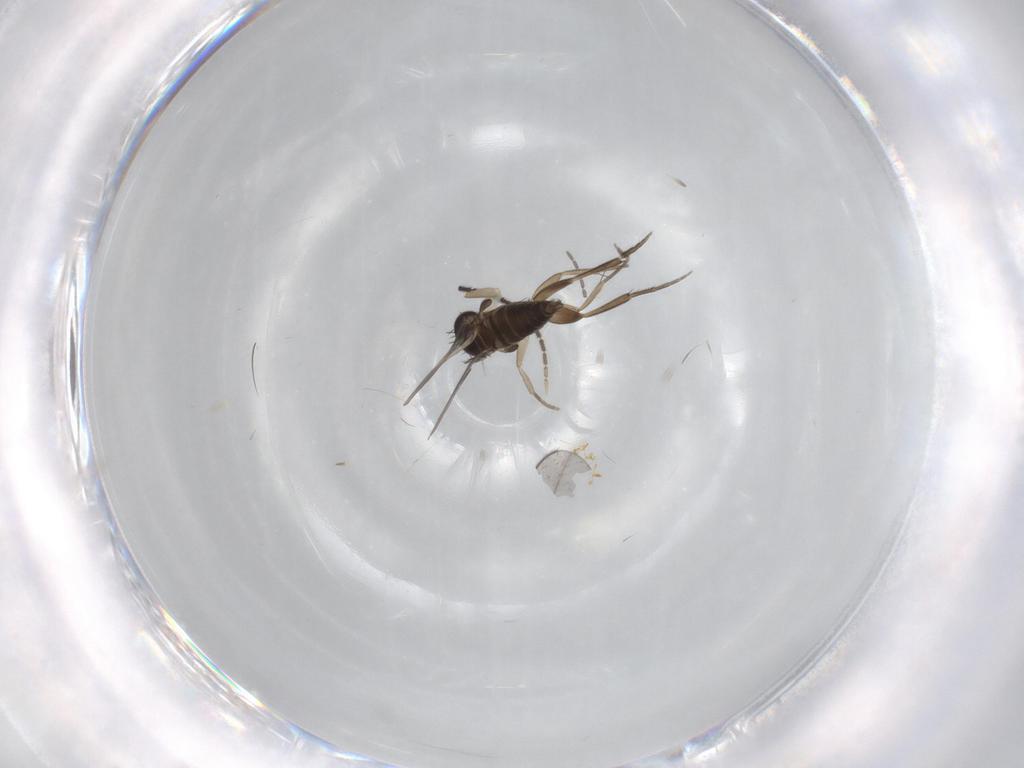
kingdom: Animalia
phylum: Arthropoda
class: Insecta
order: Diptera
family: Phoridae
